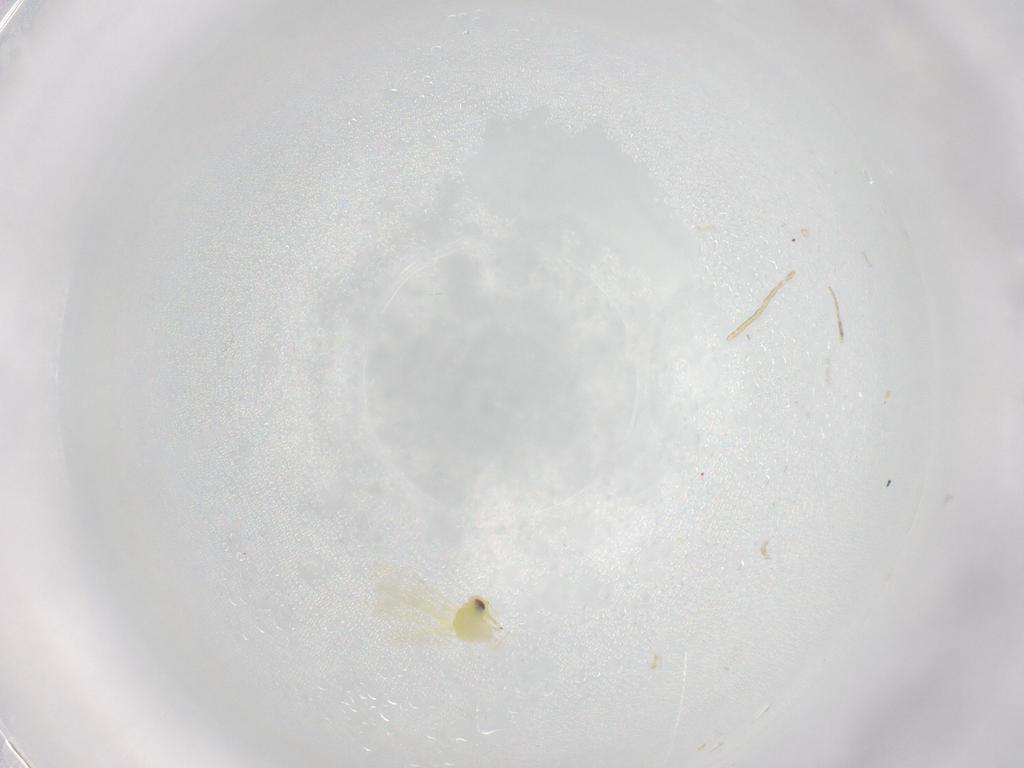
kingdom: Animalia
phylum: Arthropoda
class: Insecta
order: Hemiptera
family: Aleyrodidae
